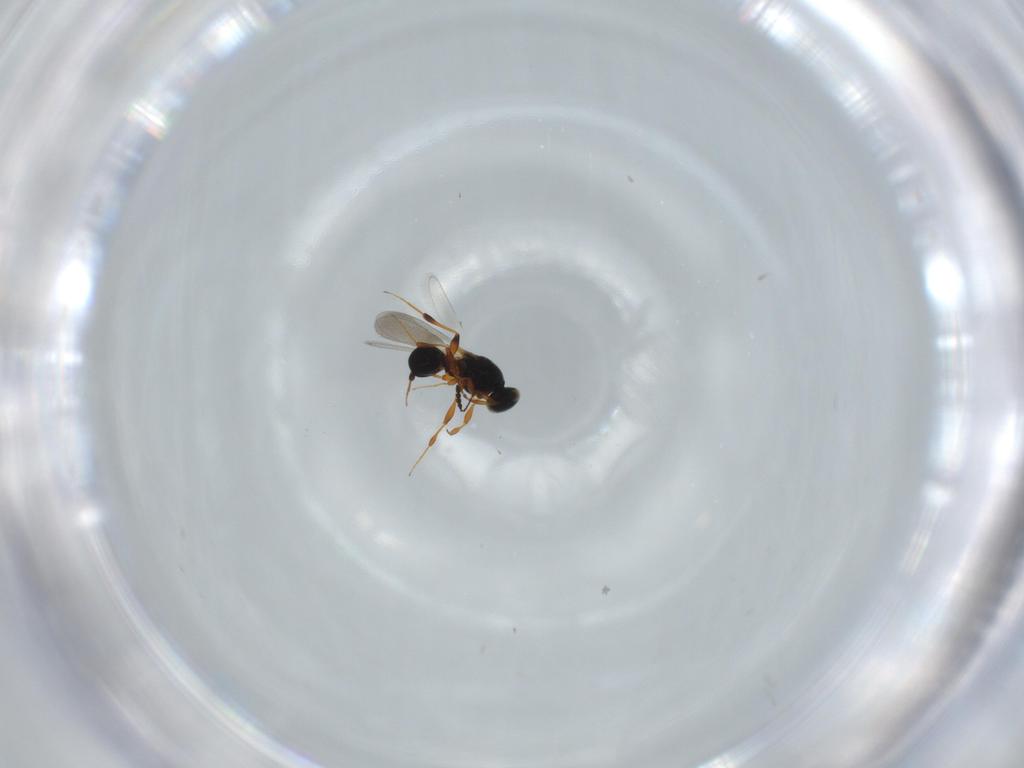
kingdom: Animalia
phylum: Arthropoda
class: Insecta
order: Hymenoptera
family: Platygastridae
